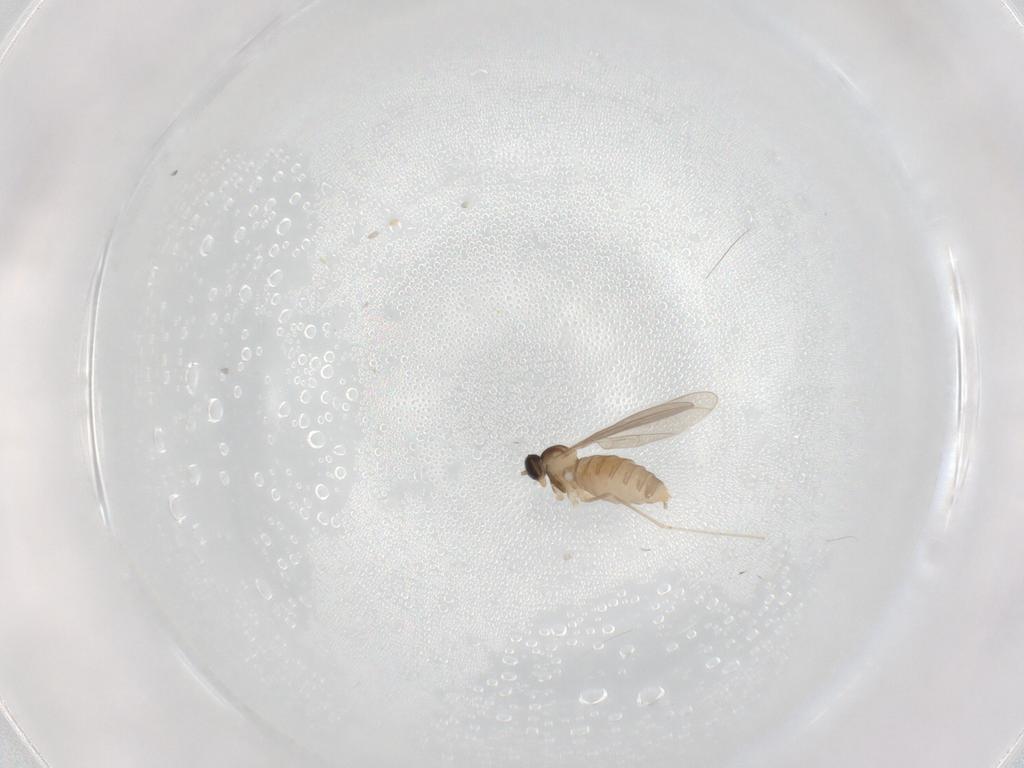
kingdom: Animalia
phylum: Arthropoda
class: Insecta
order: Diptera
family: Cecidomyiidae
